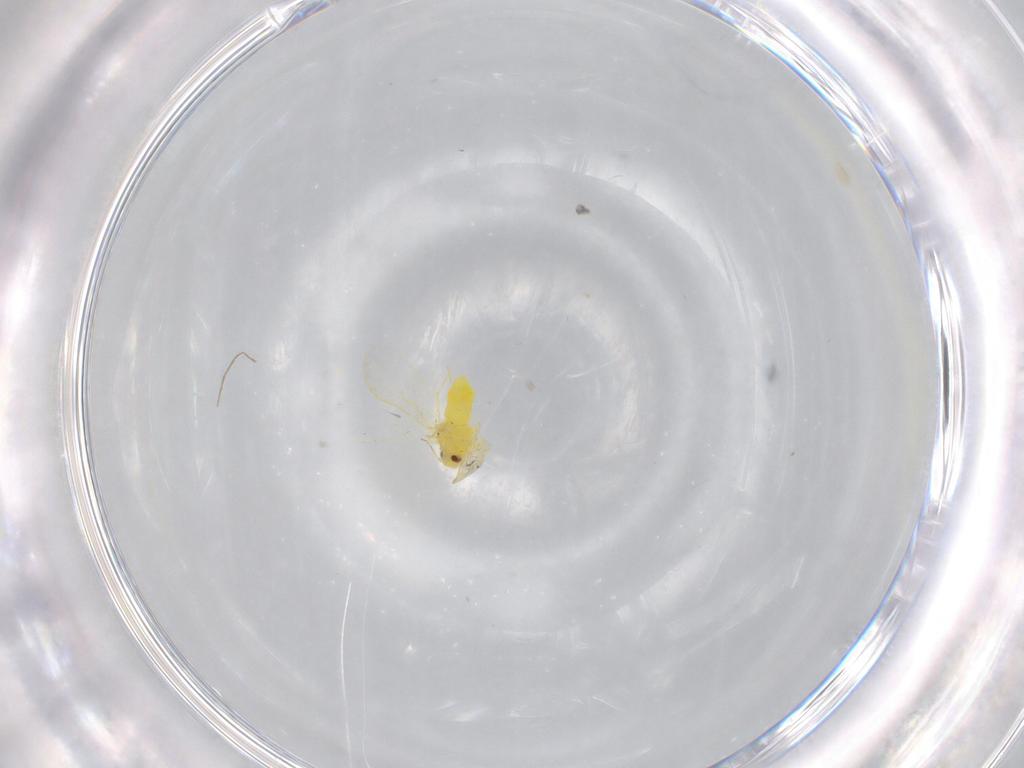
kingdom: Animalia
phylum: Arthropoda
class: Insecta
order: Hemiptera
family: Aleyrodidae
